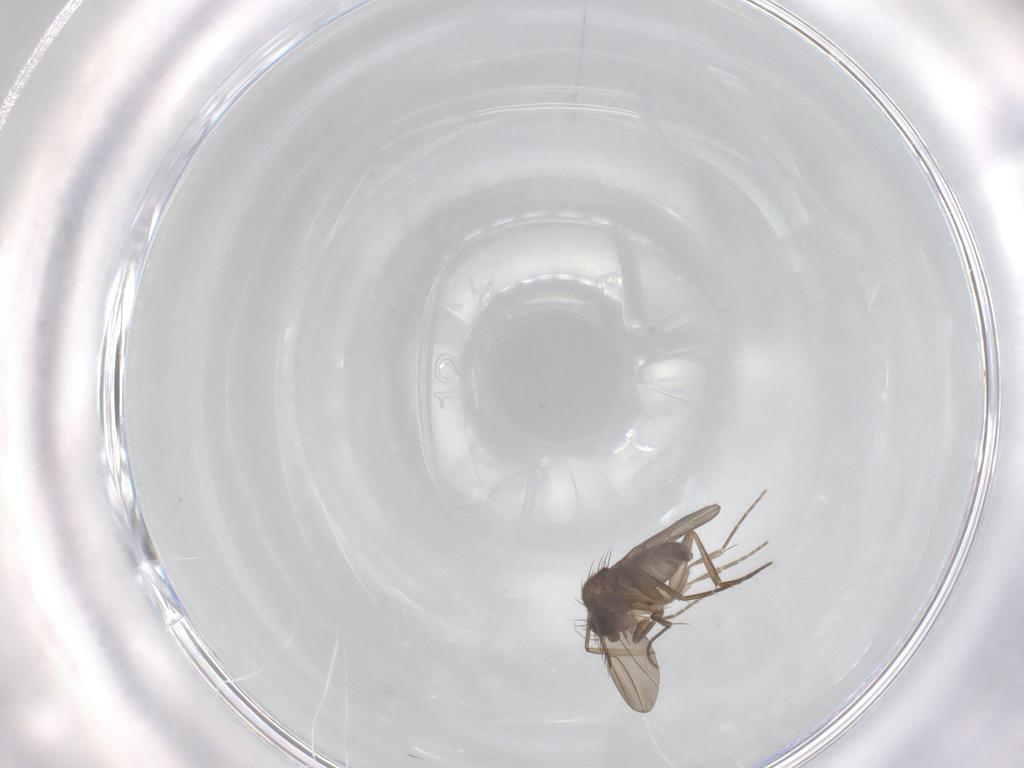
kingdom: Animalia
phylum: Arthropoda
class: Insecta
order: Diptera
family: Phoridae
